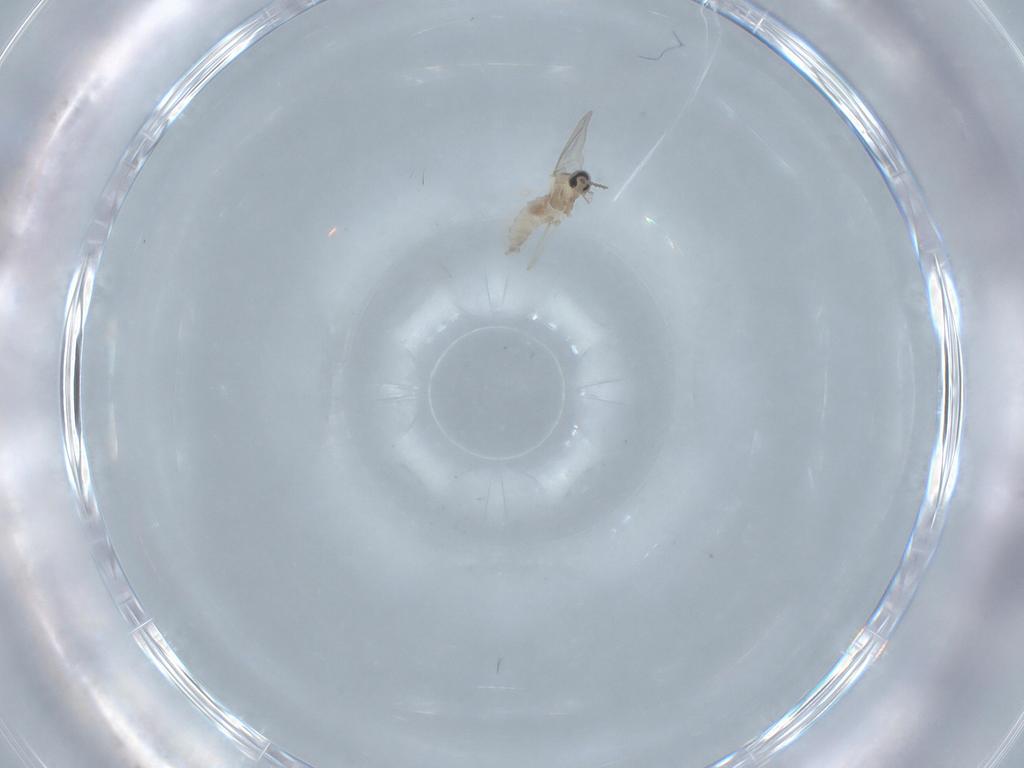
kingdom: Animalia
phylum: Arthropoda
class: Insecta
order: Diptera
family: Cecidomyiidae
